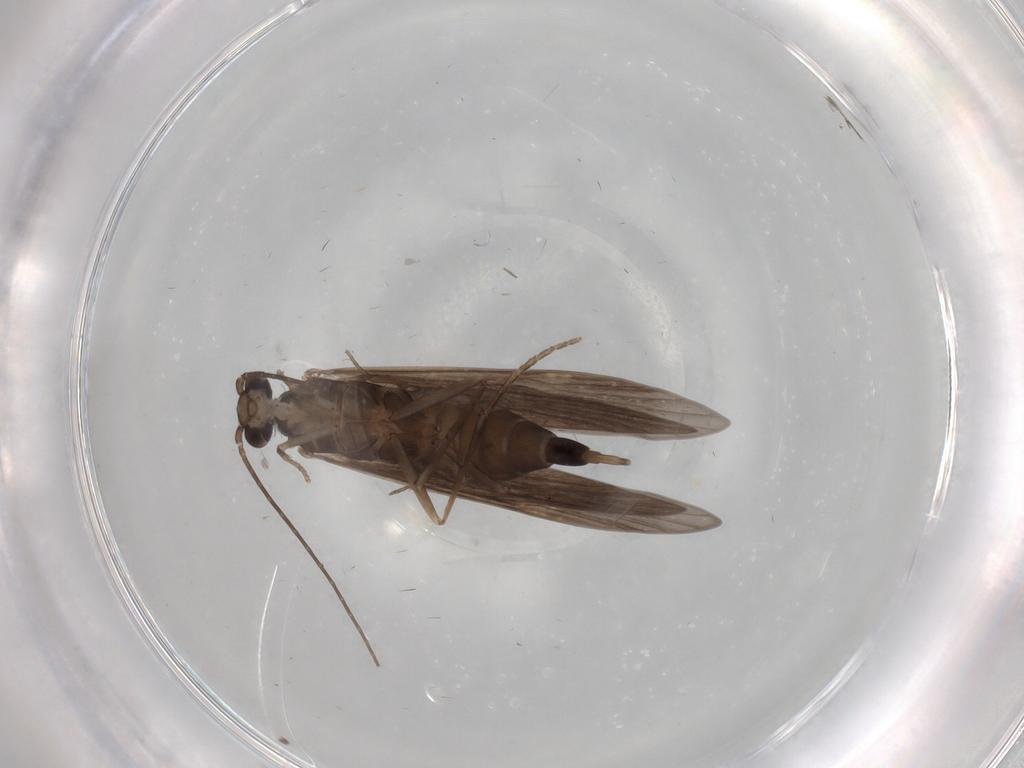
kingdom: Animalia
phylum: Arthropoda
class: Insecta
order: Trichoptera
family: Xiphocentronidae
